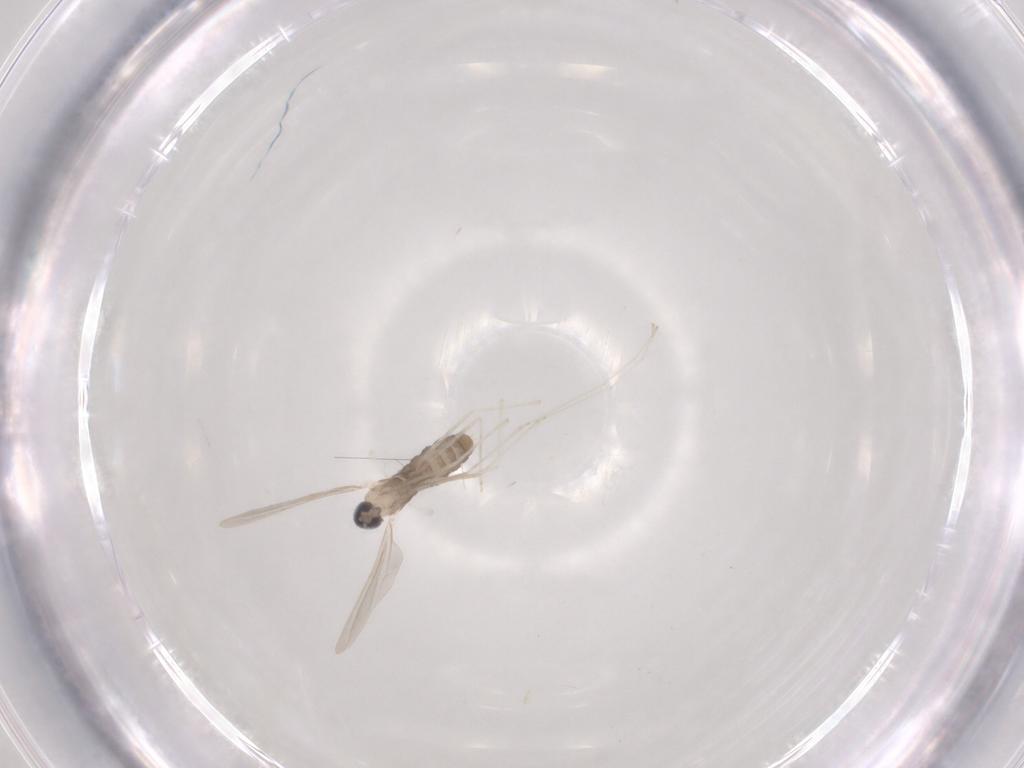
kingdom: Animalia
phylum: Arthropoda
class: Insecta
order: Diptera
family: Cecidomyiidae
